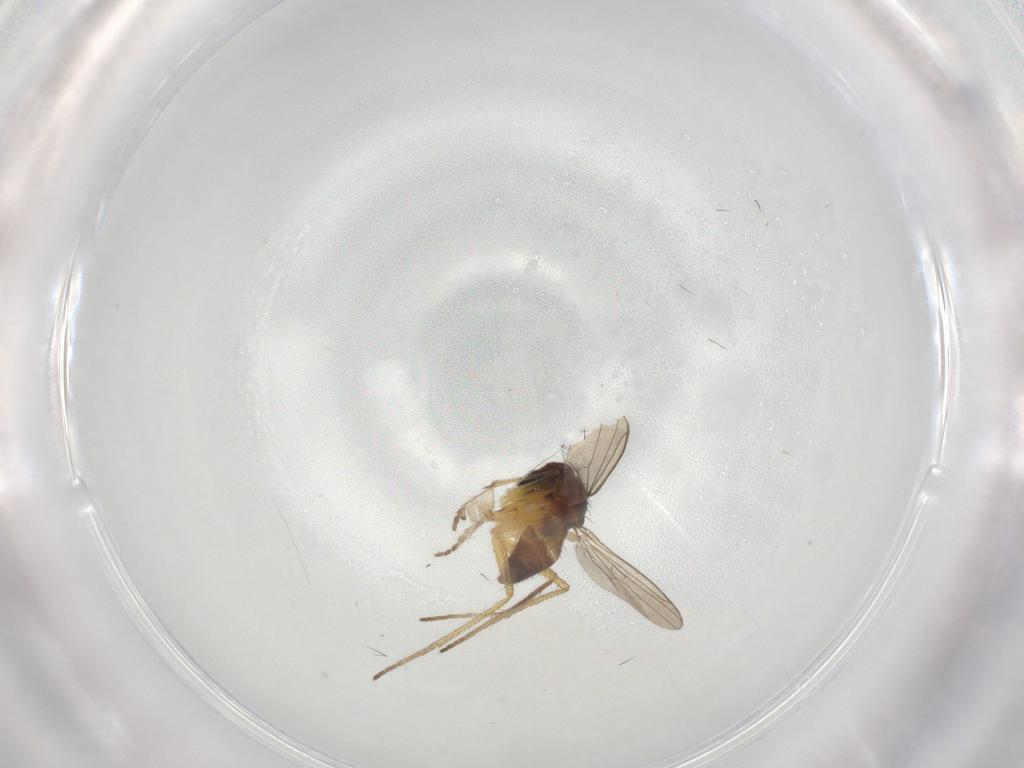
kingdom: Animalia
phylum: Arthropoda
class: Insecta
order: Diptera
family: Dolichopodidae
